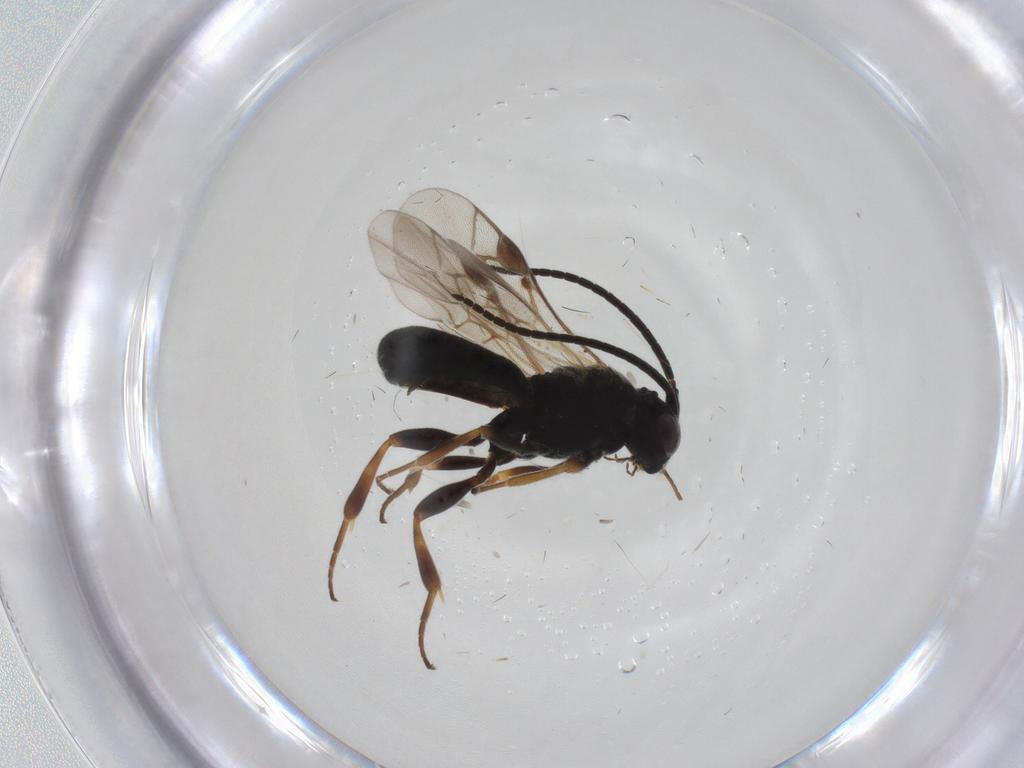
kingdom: Animalia
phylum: Arthropoda
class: Insecta
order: Hymenoptera
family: Braconidae
